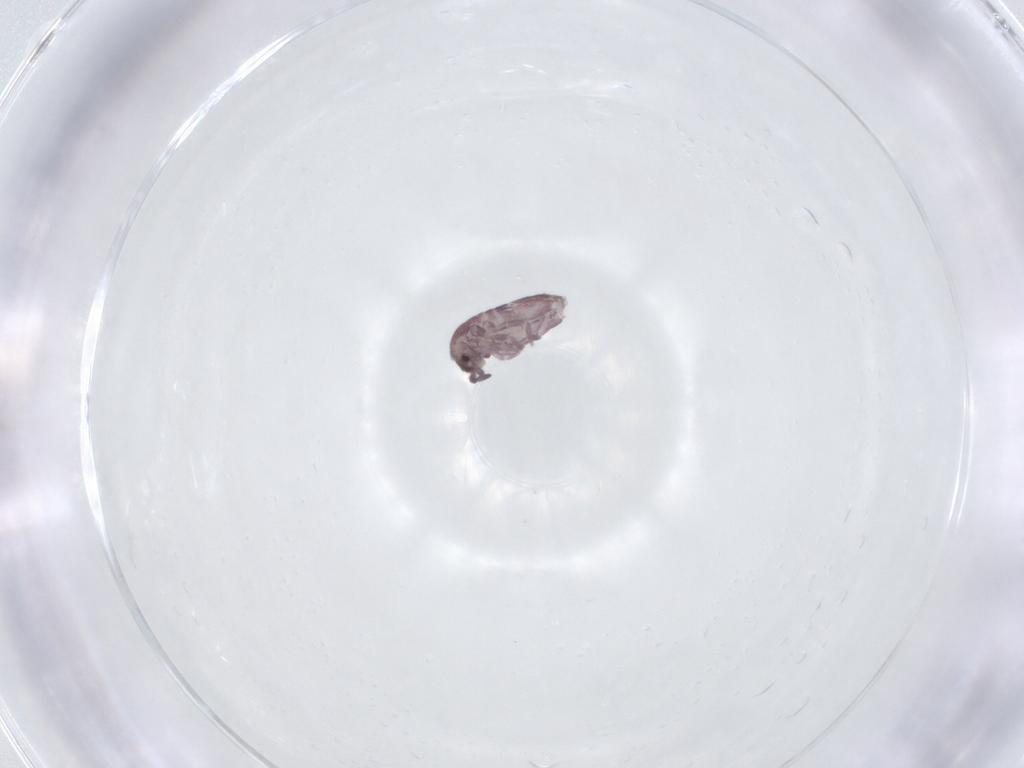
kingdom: Animalia
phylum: Arthropoda
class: Collembola
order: Entomobryomorpha
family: Entomobryidae
